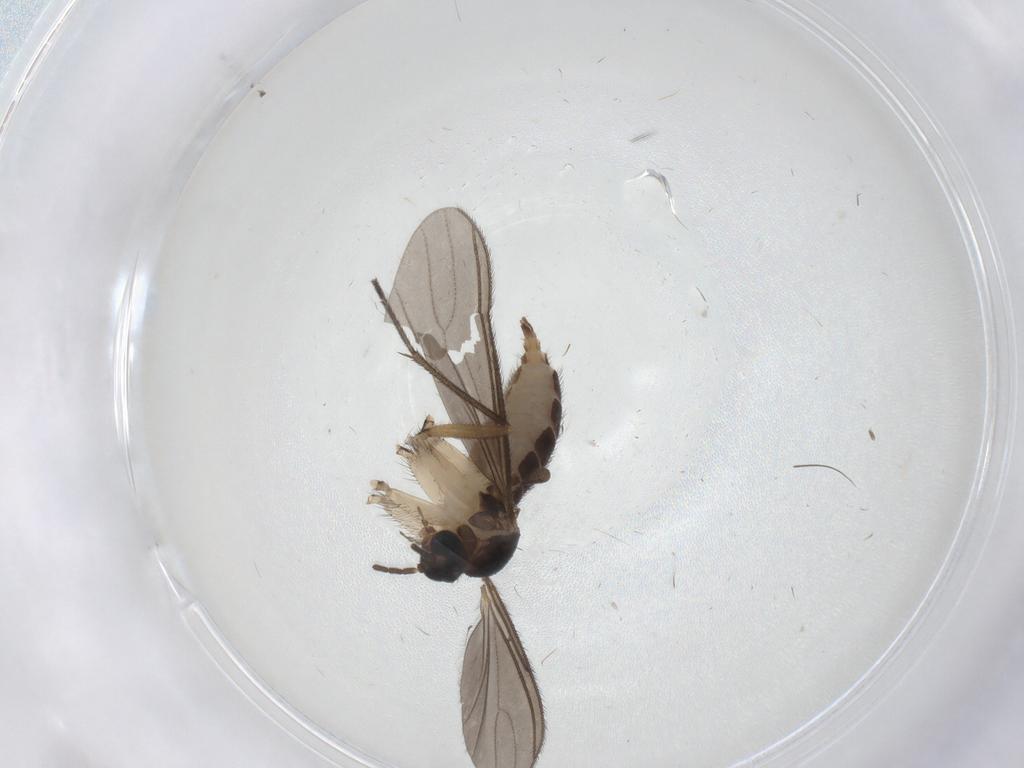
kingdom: Animalia
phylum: Arthropoda
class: Insecta
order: Diptera
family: Sciaridae
